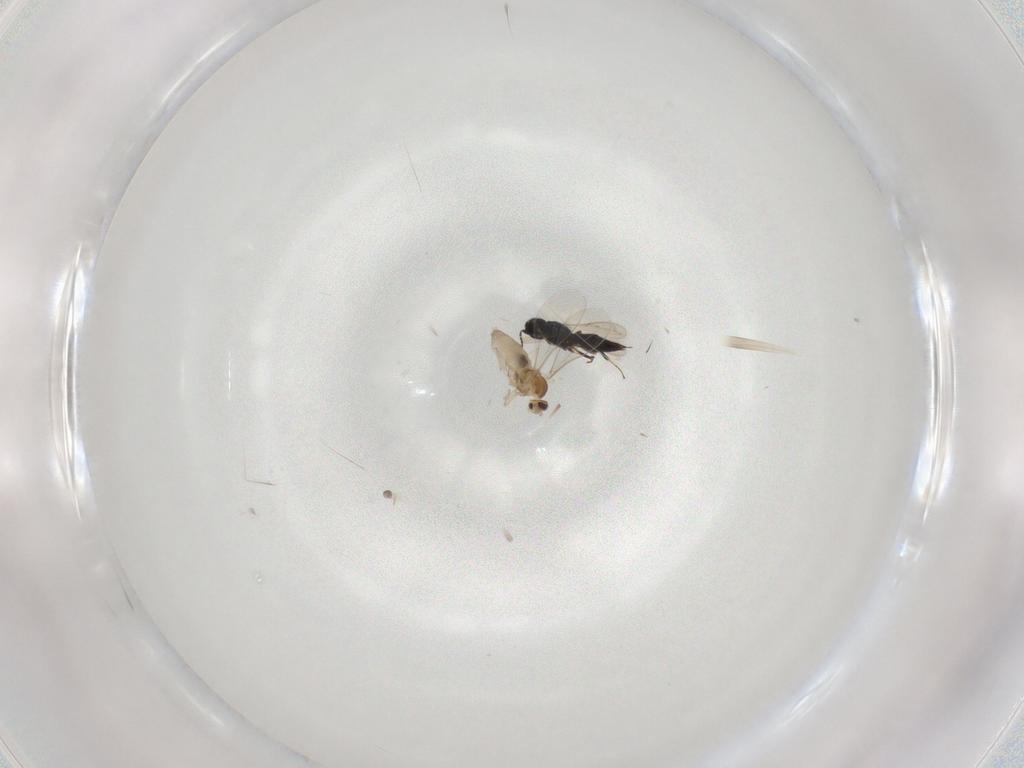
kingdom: Animalia
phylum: Arthropoda
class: Insecta
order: Hymenoptera
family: Scelionidae
